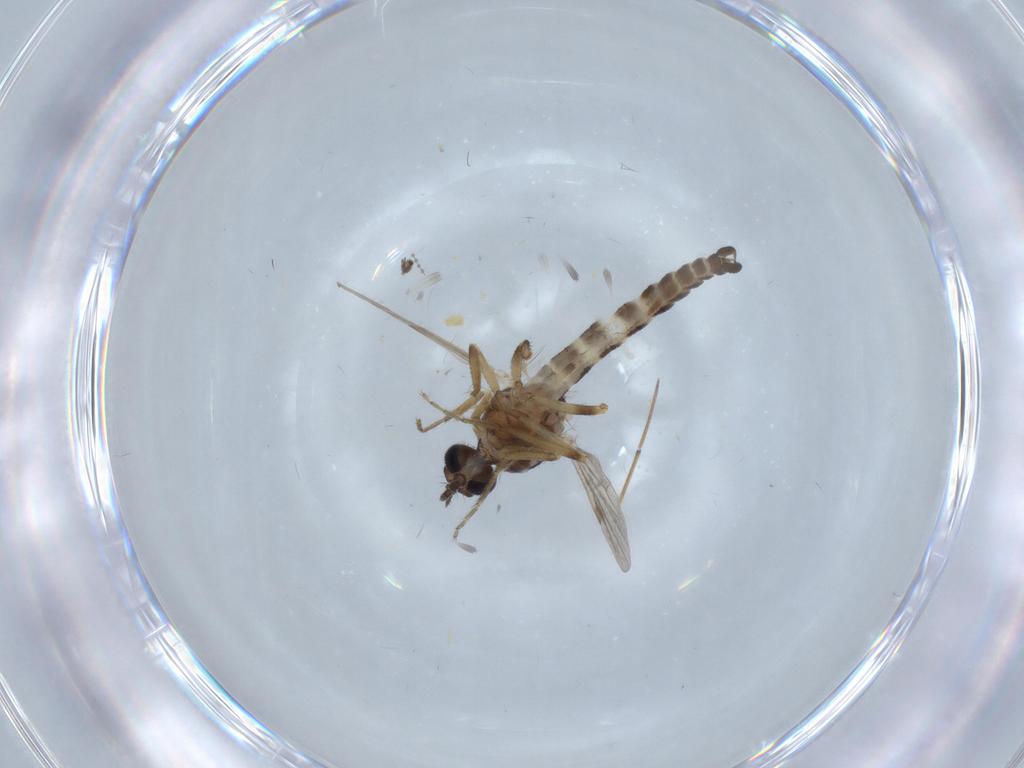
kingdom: Animalia
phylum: Arthropoda
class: Insecta
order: Diptera
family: Ceratopogonidae
